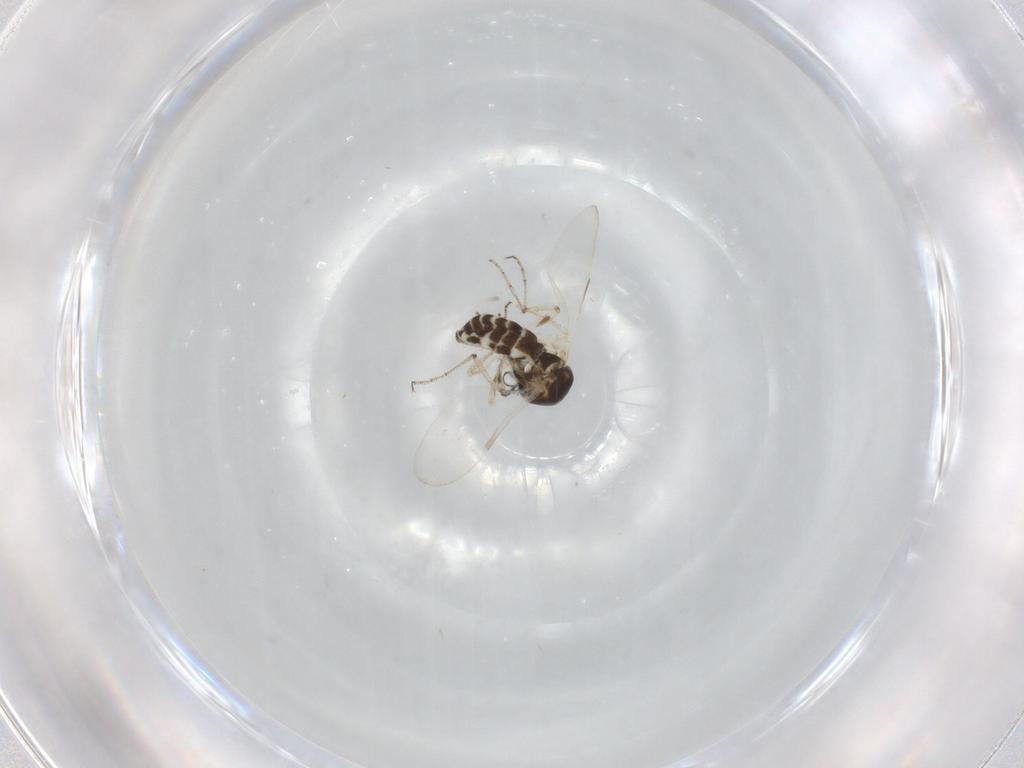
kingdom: Animalia
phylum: Arthropoda
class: Insecta
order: Diptera
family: Ceratopogonidae
